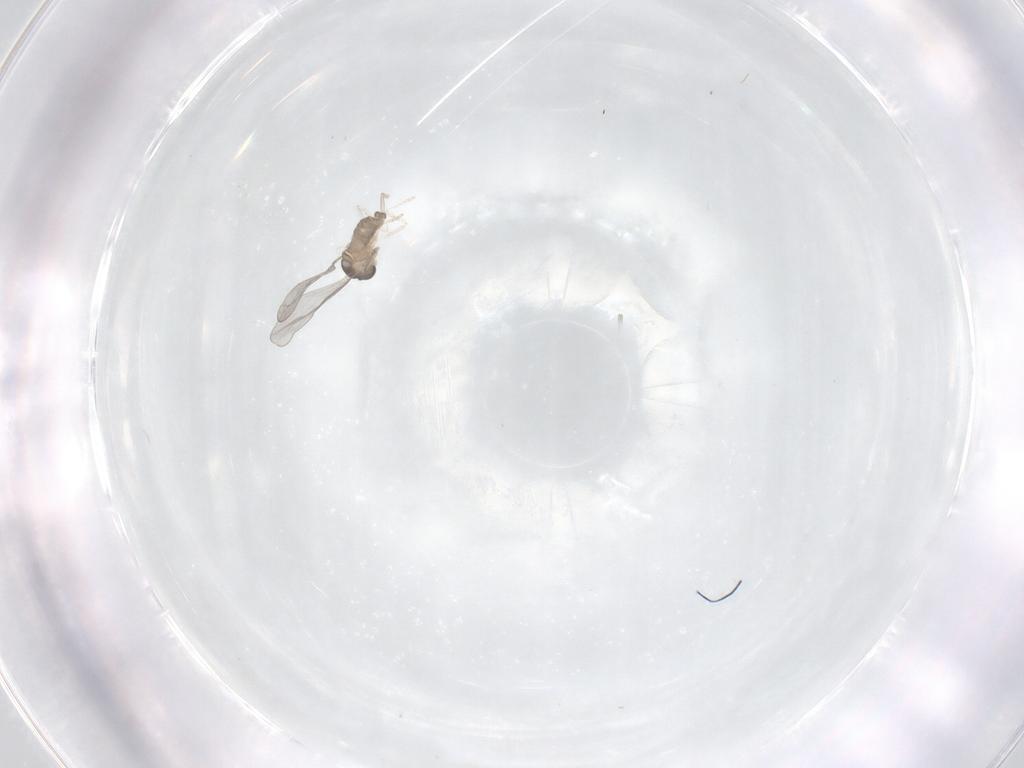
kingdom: Animalia
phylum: Arthropoda
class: Insecta
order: Diptera
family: Cecidomyiidae
